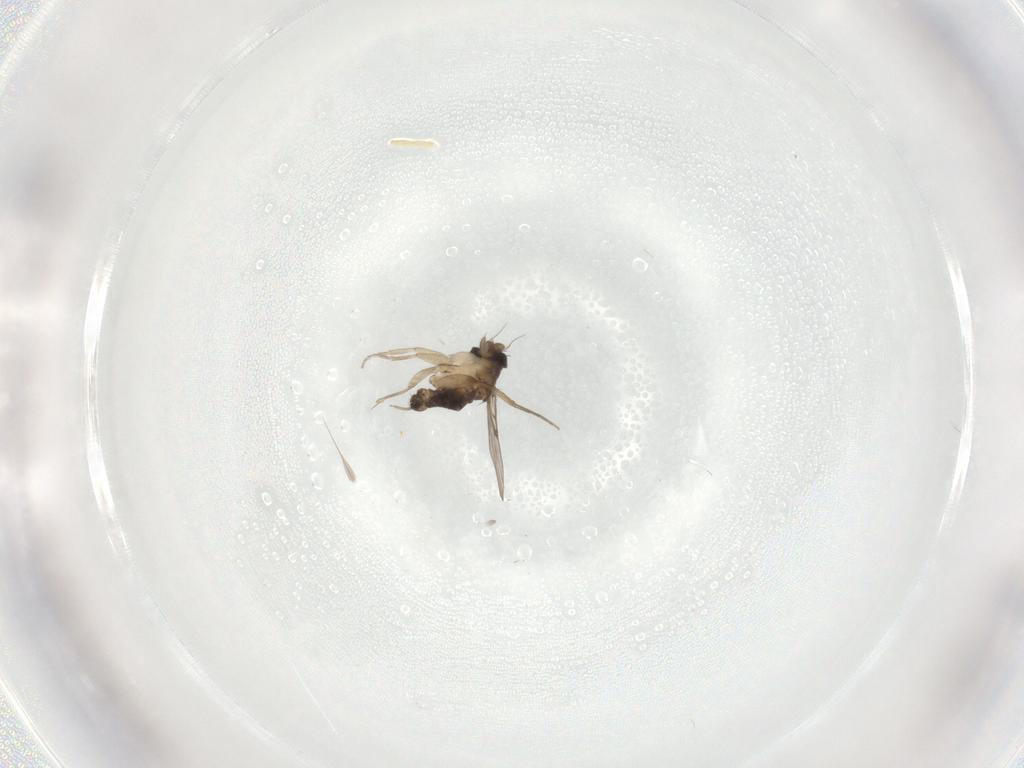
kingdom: Animalia
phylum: Arthropoda
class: Insecta
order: Diptera
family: Phoridae
